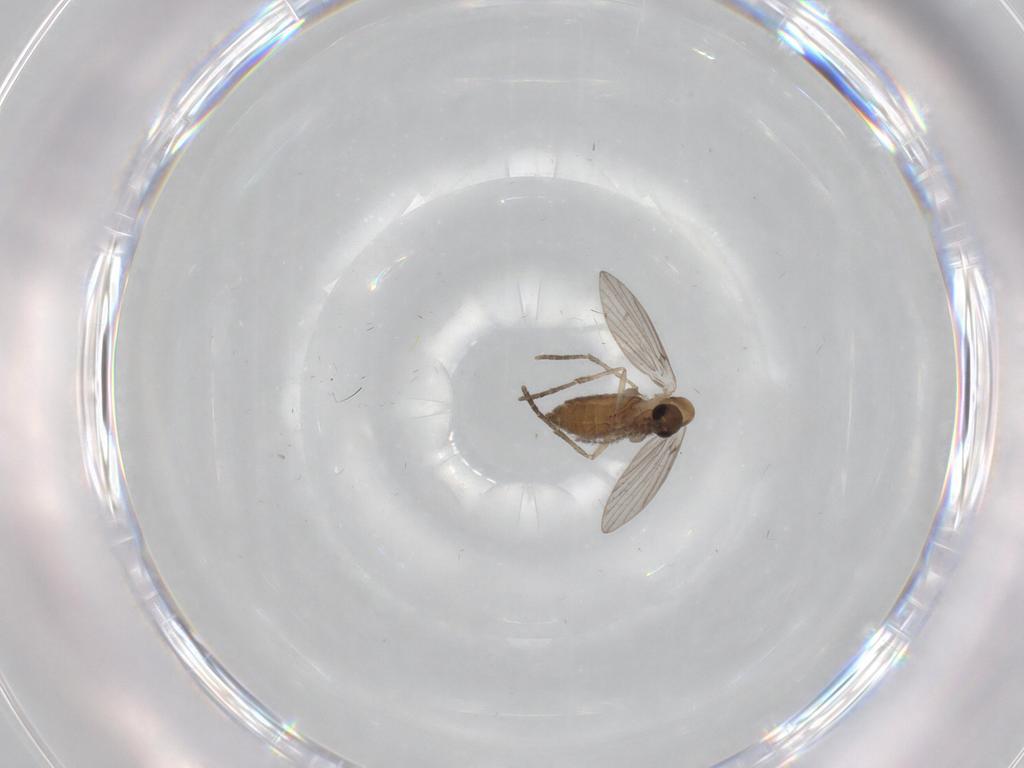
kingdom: Animalia
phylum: Arthropoda
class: Insecta
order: Diptera
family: Psychodidae
